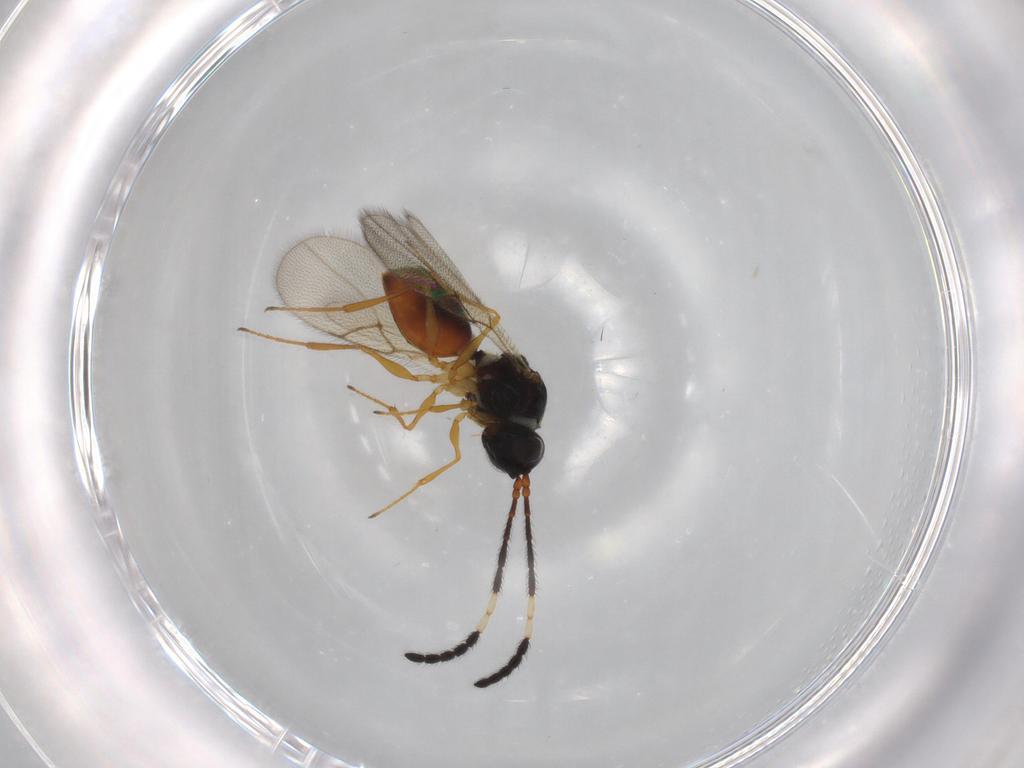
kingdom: Animalia
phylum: Arthropoda
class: Insecta
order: Hymenoptera
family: Figitidae
